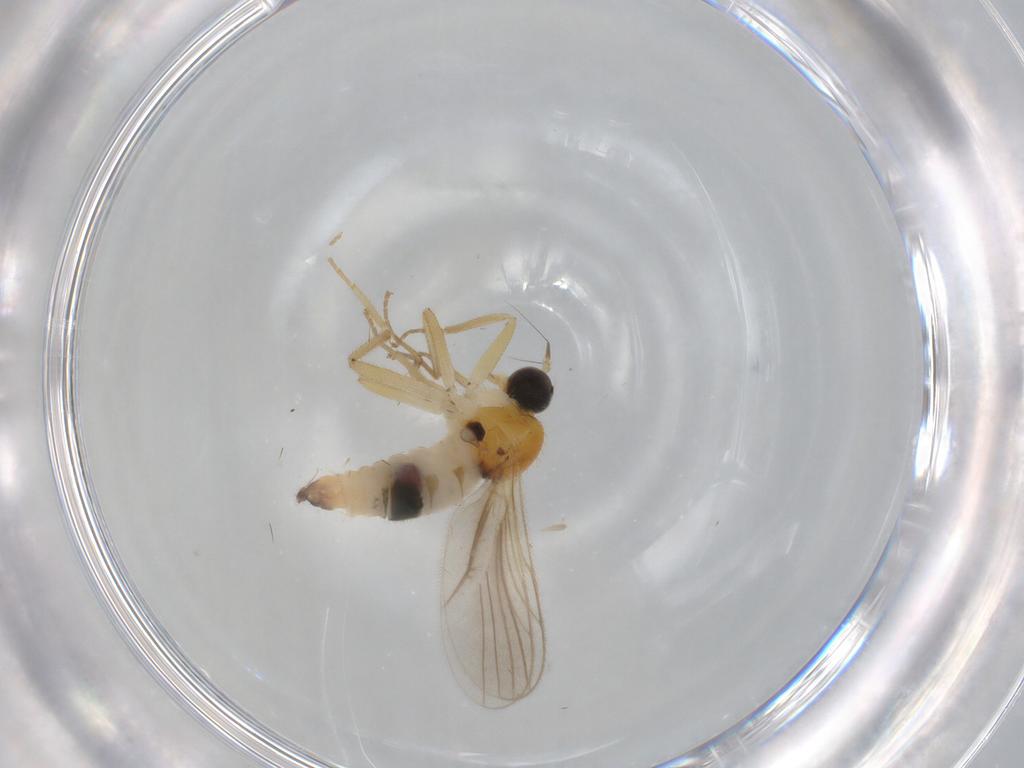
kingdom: Animalia
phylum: Arthropoda
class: Insecta
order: Diptera
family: Hybotidae
